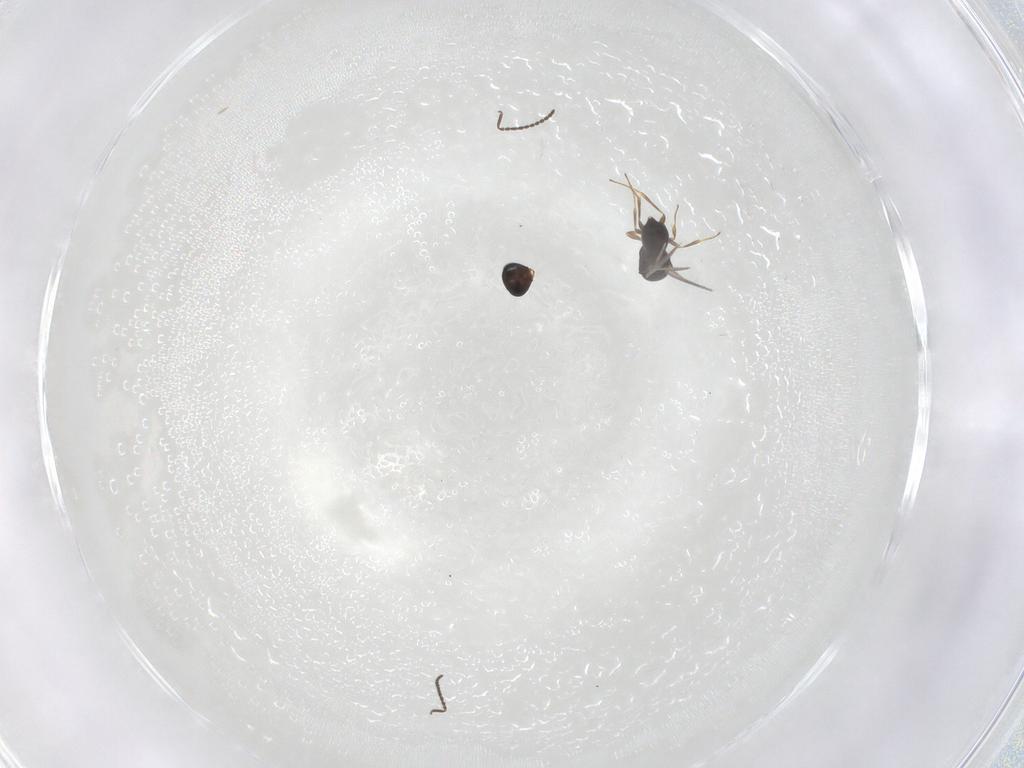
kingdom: Animalia
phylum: Arthropoda
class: Insecta
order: Hymenoptera
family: Scelionidae
